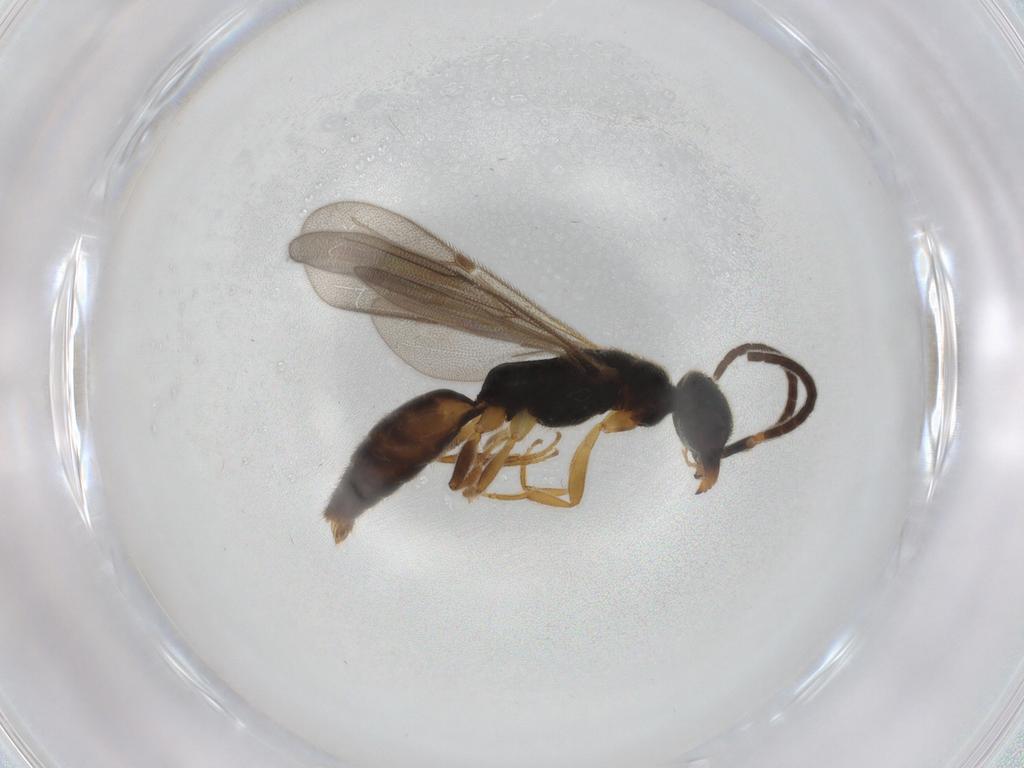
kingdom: Animalia
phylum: Arthropoda
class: Insecta
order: Hymenoptera
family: Bethylidae
